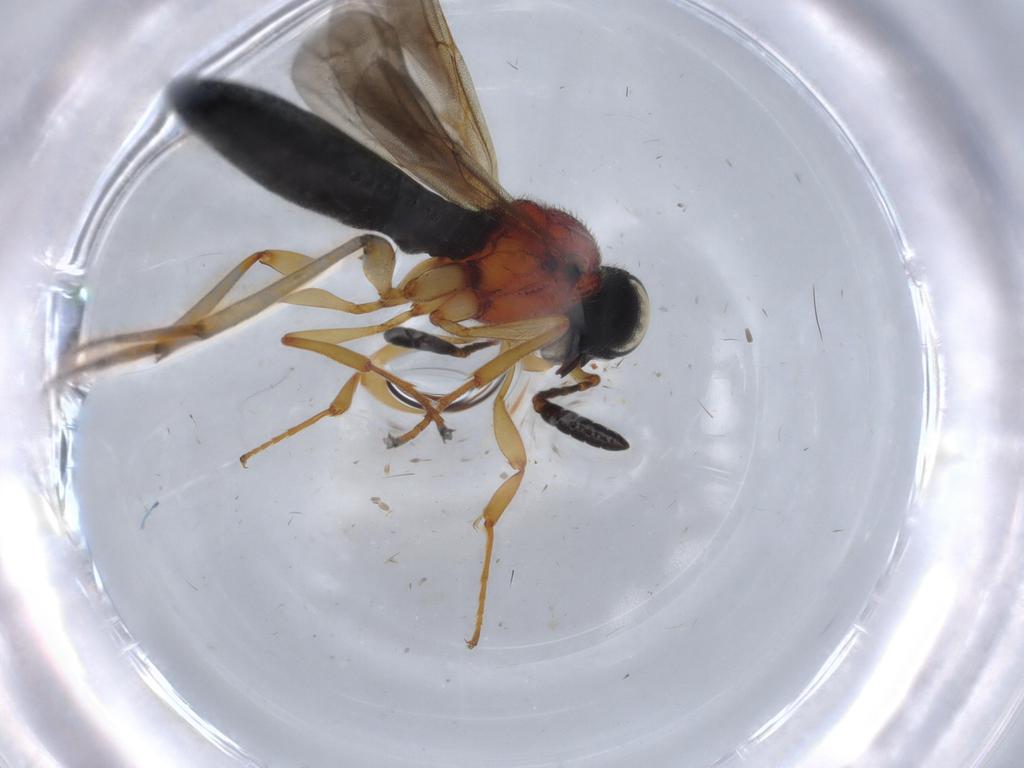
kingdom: Animalia
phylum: Arthropoda
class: Insecta
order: Hymenoptera
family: Scelionidae
